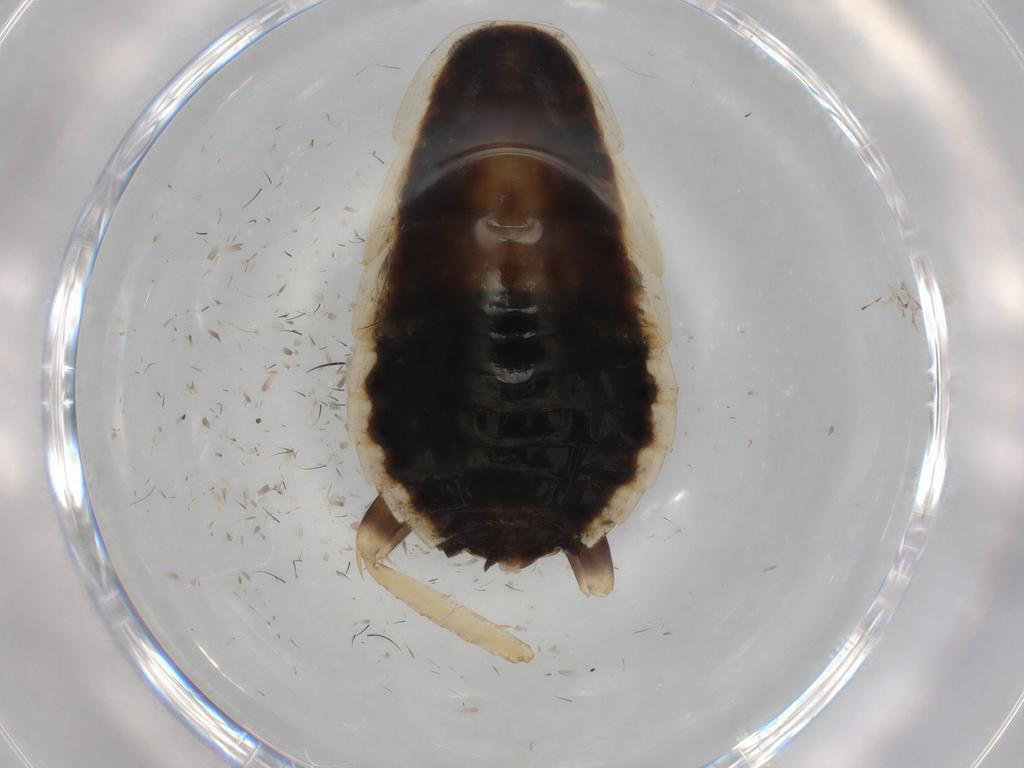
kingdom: Animalia
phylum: Arthropoda
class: Insecta
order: Blattodea
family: Ectobiidae
